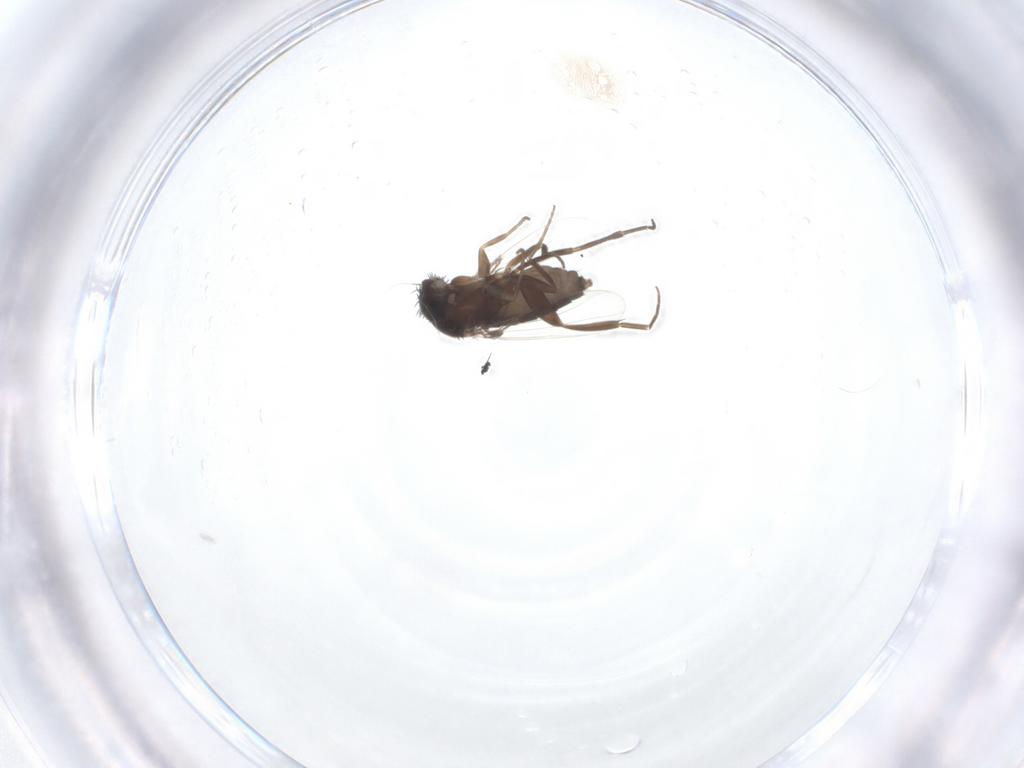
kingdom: Animalia
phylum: Arthropoda
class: Insecta
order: Diptera
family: Phoridae
